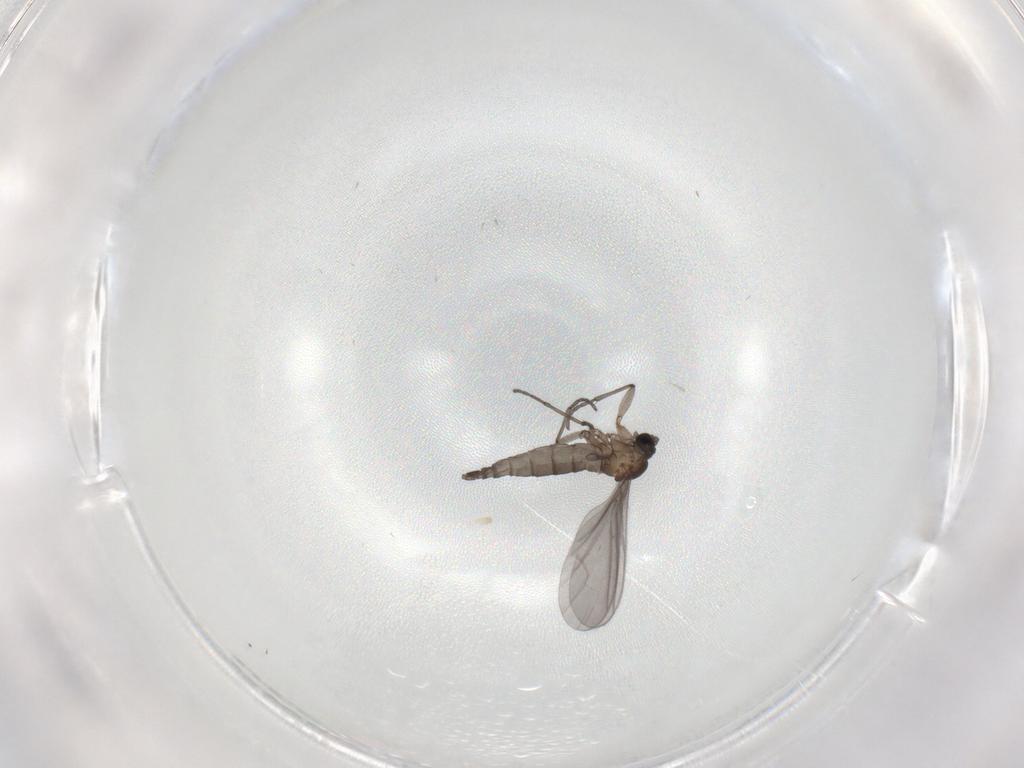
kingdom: Animalia
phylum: Arthropoda
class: Insecta
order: Diptera
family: Sciaridae
